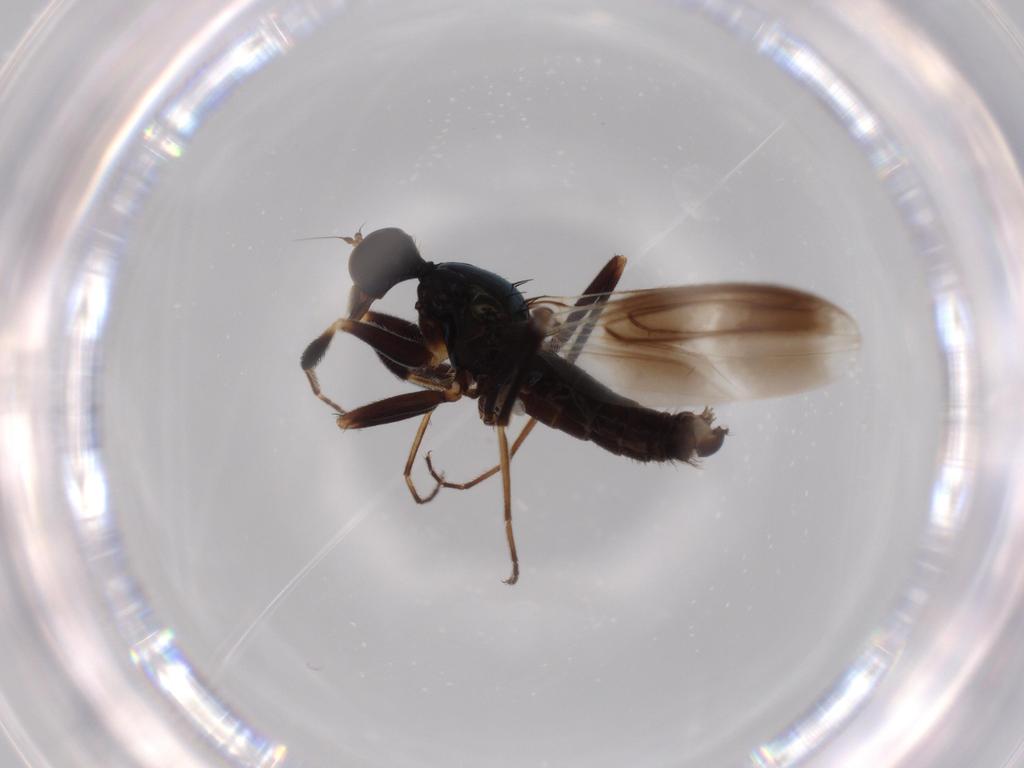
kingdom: Animalia
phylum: Arthropoda
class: Insecta
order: Diptera
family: Hybotidae
